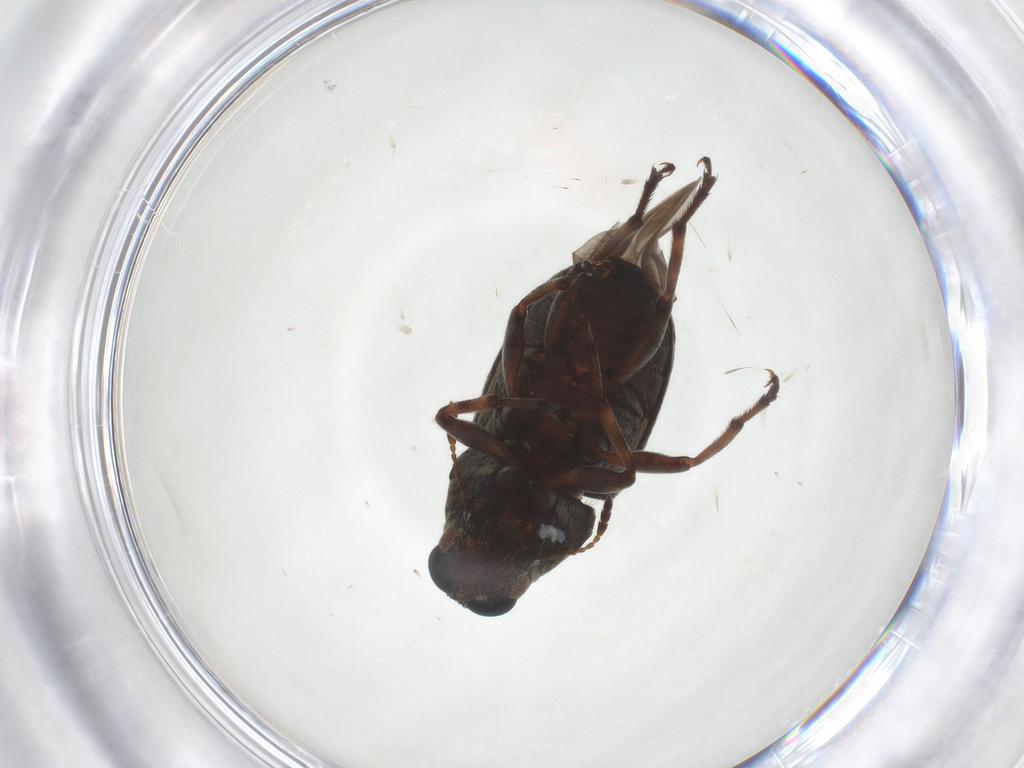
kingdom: Animalia
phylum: Arthropoda
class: Insecta
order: Coleoptera
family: Anthribidae
